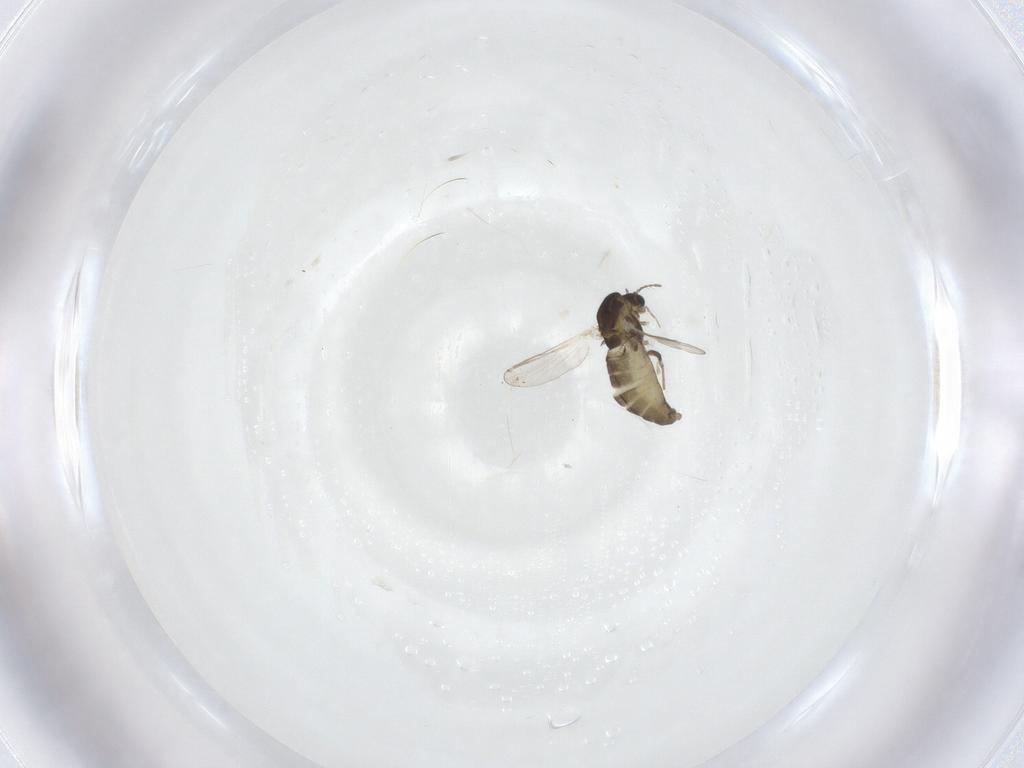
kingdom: Animalia
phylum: Arthropoda
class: Insecta
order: Diptera
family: Chironomidae
